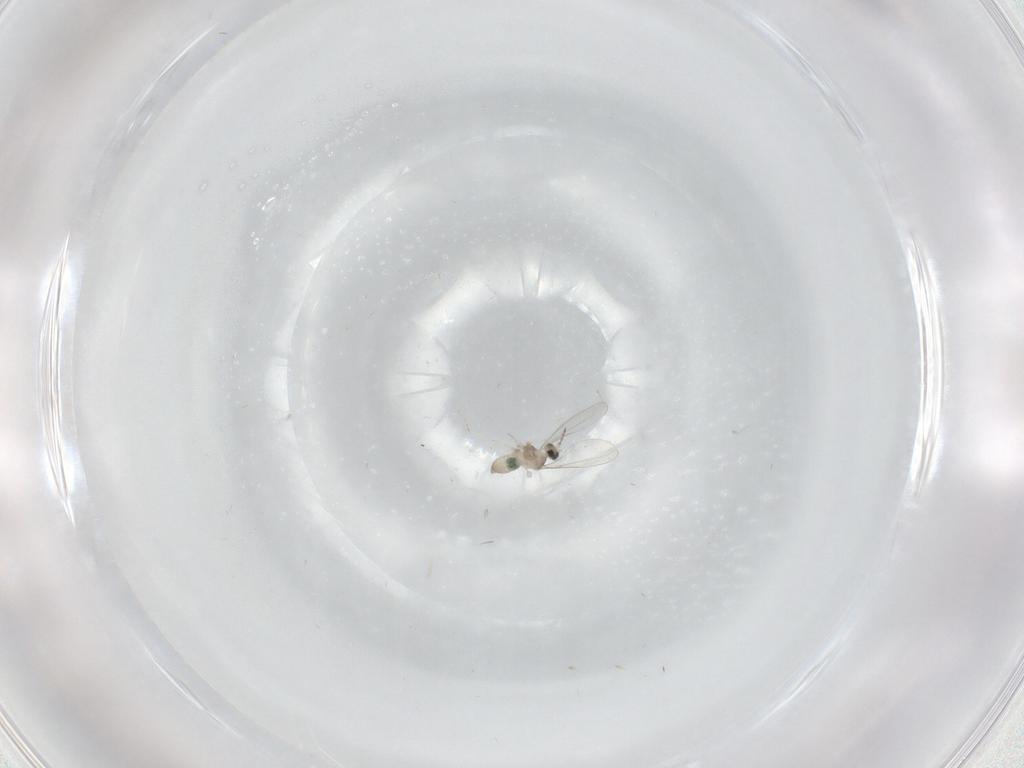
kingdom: Animalia
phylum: Arthropoda
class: Insecta
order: Diptera
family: Cecidomyiidae
